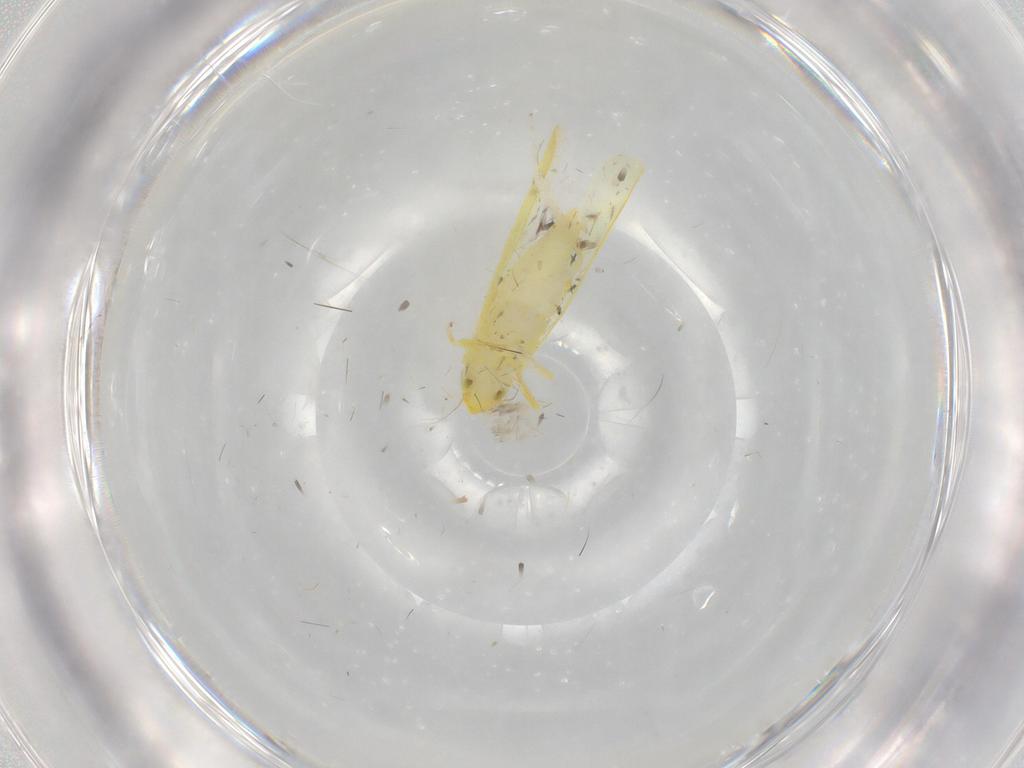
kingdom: Animalia
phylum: Arthropoda
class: Insecta
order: Hemiptera
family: Cicadellidae
